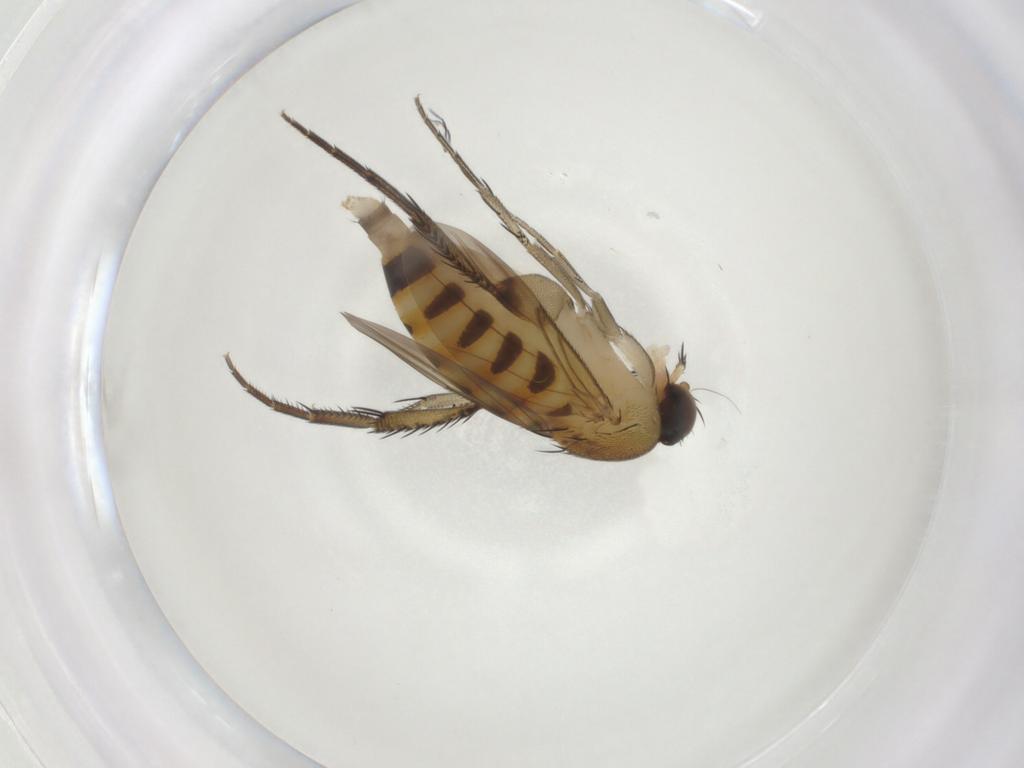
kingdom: Animalia
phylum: Arthropoda
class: Insecta
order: Diptera
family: Phoridae
